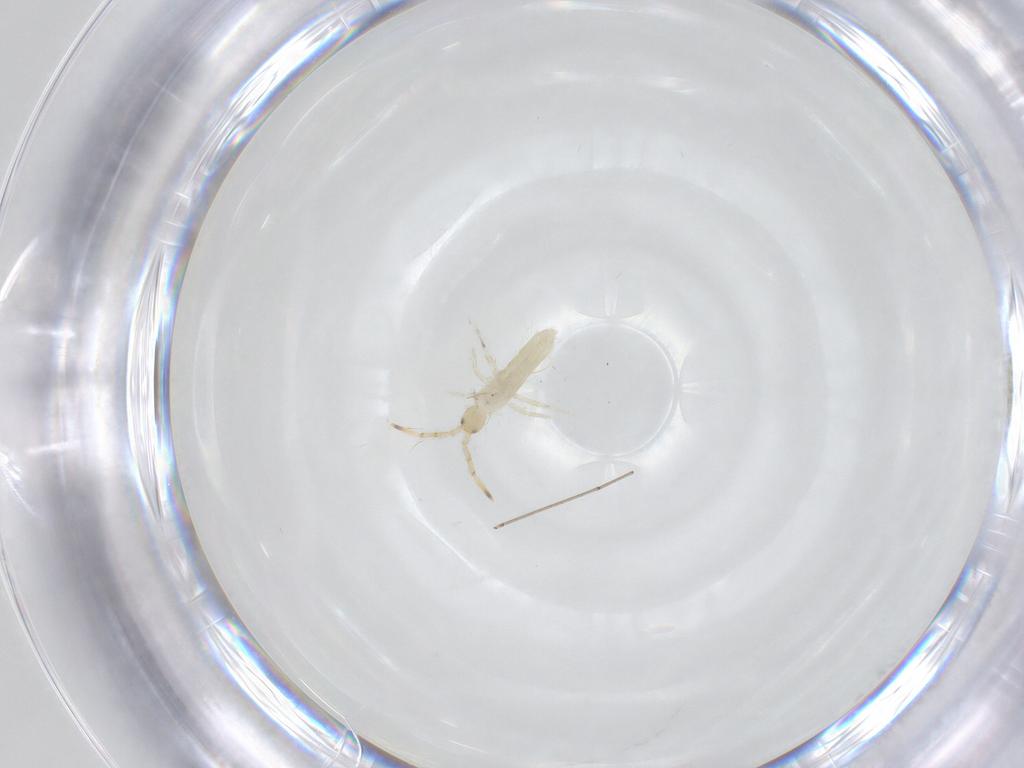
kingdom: Animalia
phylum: Arthropoda
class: Collembola
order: Entomobryomorpha
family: Entomobryidae
